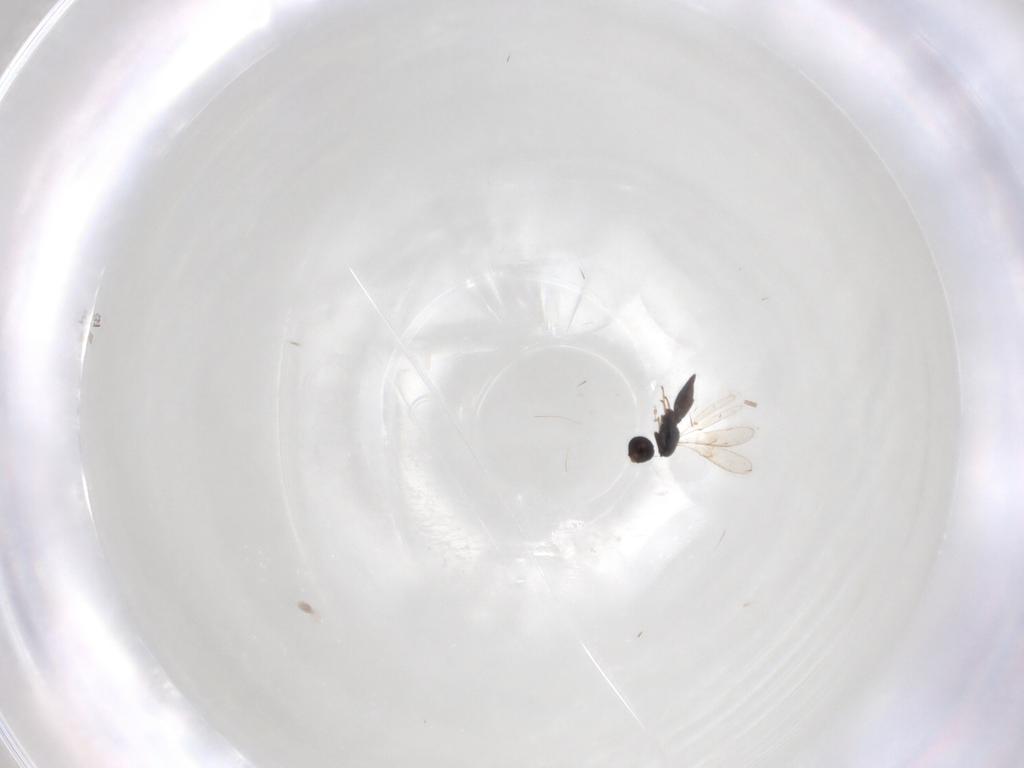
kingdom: Animalia
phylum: Arthropoda
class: Insecta
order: Hymenoptera
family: Scelionidae
